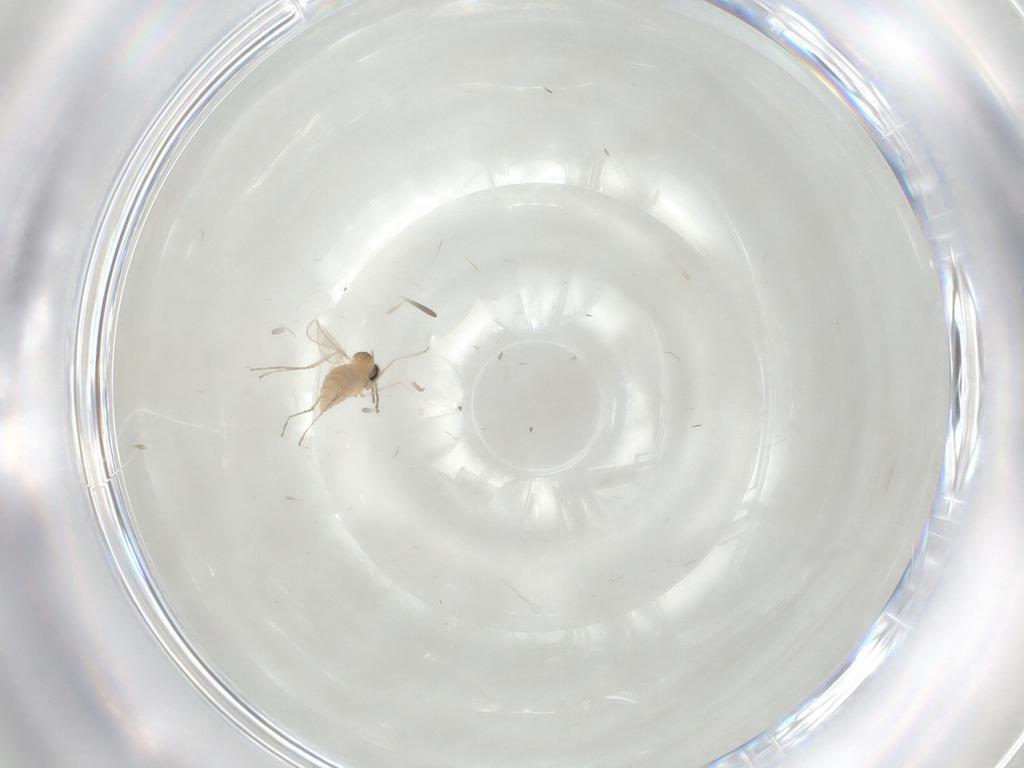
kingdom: Animalia
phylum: Arthropoda
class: Insecta
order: Diptera
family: Cecidomyiidae
